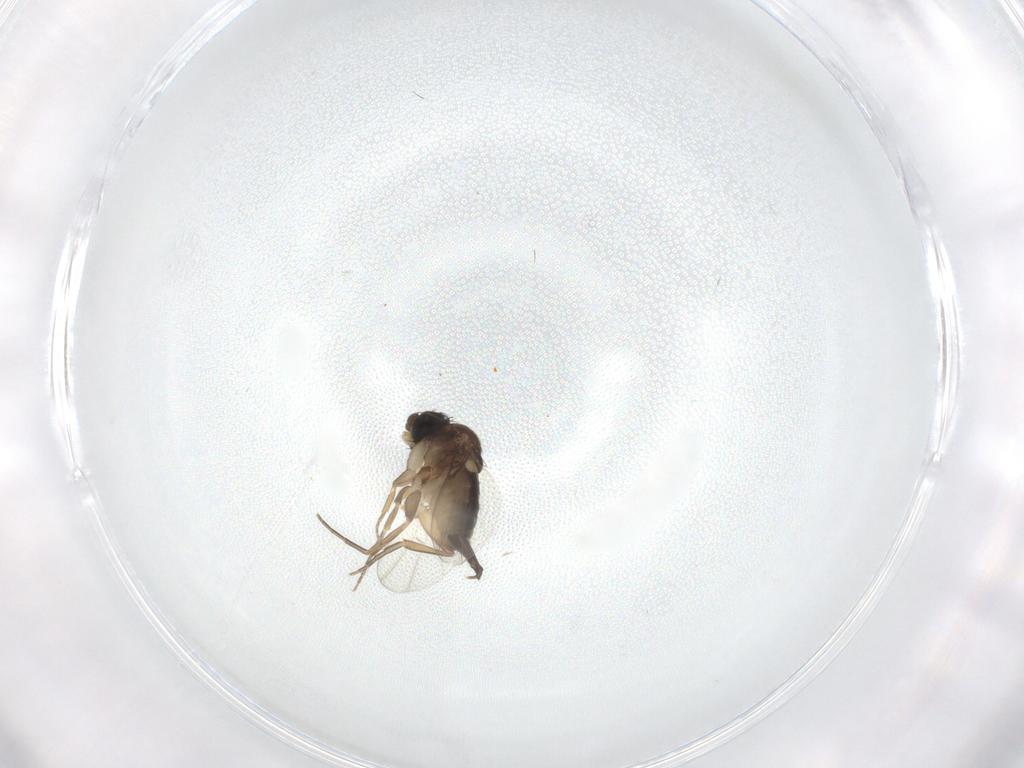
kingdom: Animalia
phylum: Arthropoda
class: Insecta
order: Diptera
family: Phoridae
